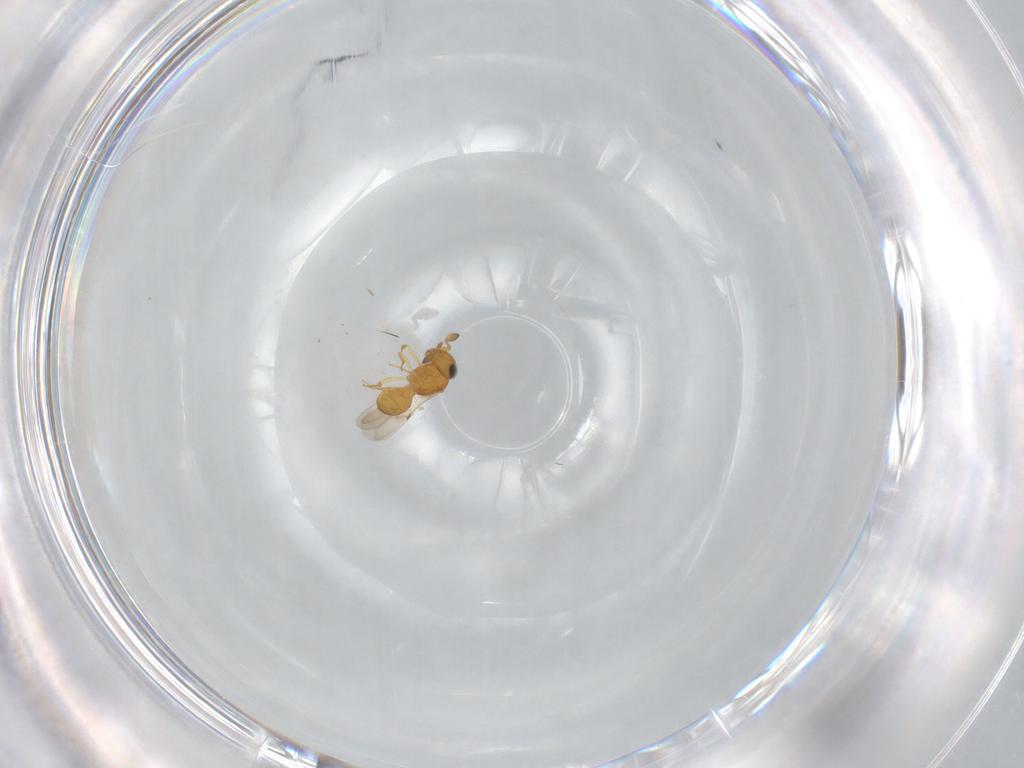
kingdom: Animalia
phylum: Arthropoda
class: Insecta
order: Hymenoptera
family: Scelionidae
